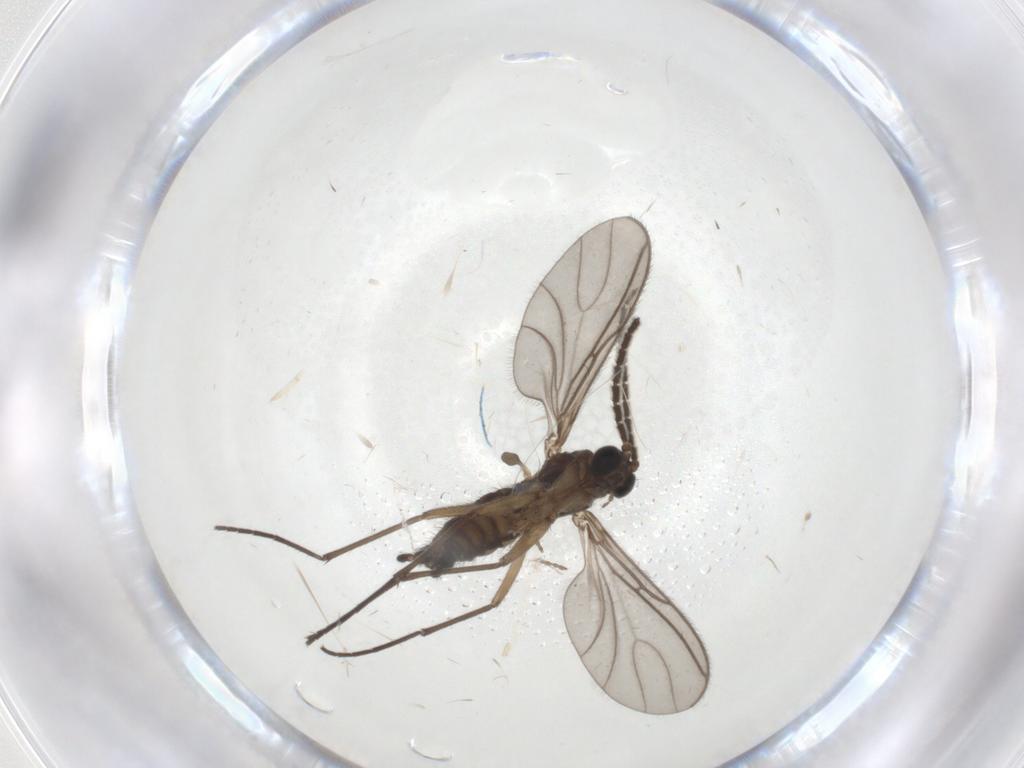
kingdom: Animalia
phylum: Arthropoda
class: Insecta
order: Diptera
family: Sciaridae
